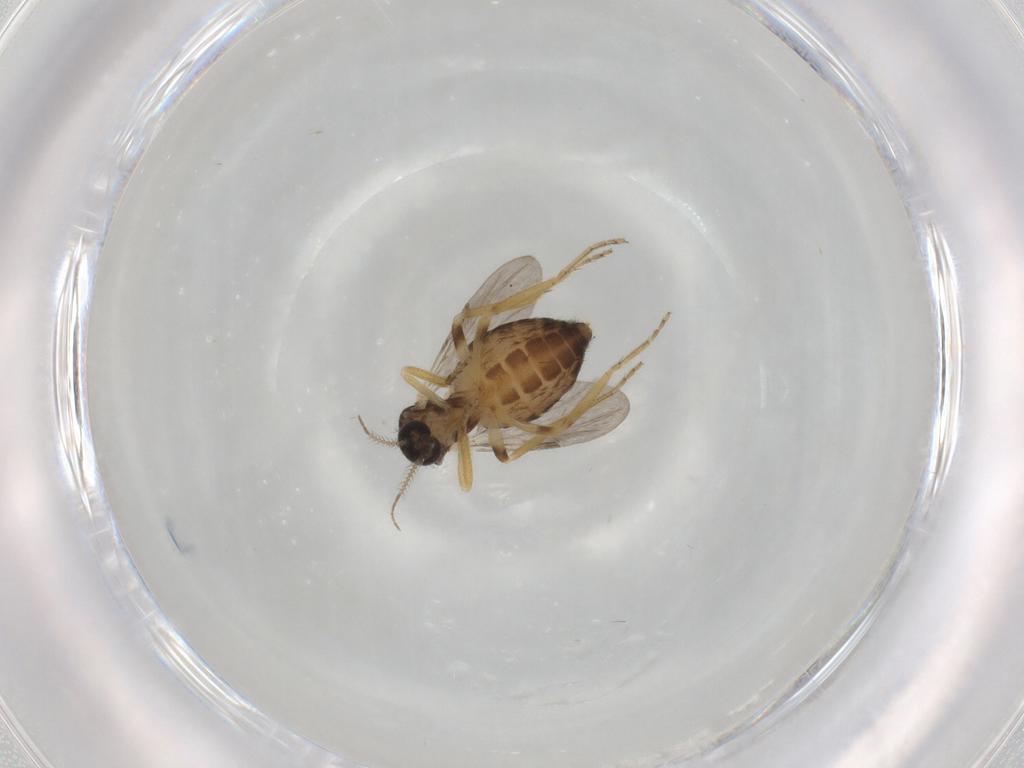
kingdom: Animalia
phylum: Arthropoda
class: Insecta
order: Diptera
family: Ceratopogonidae
